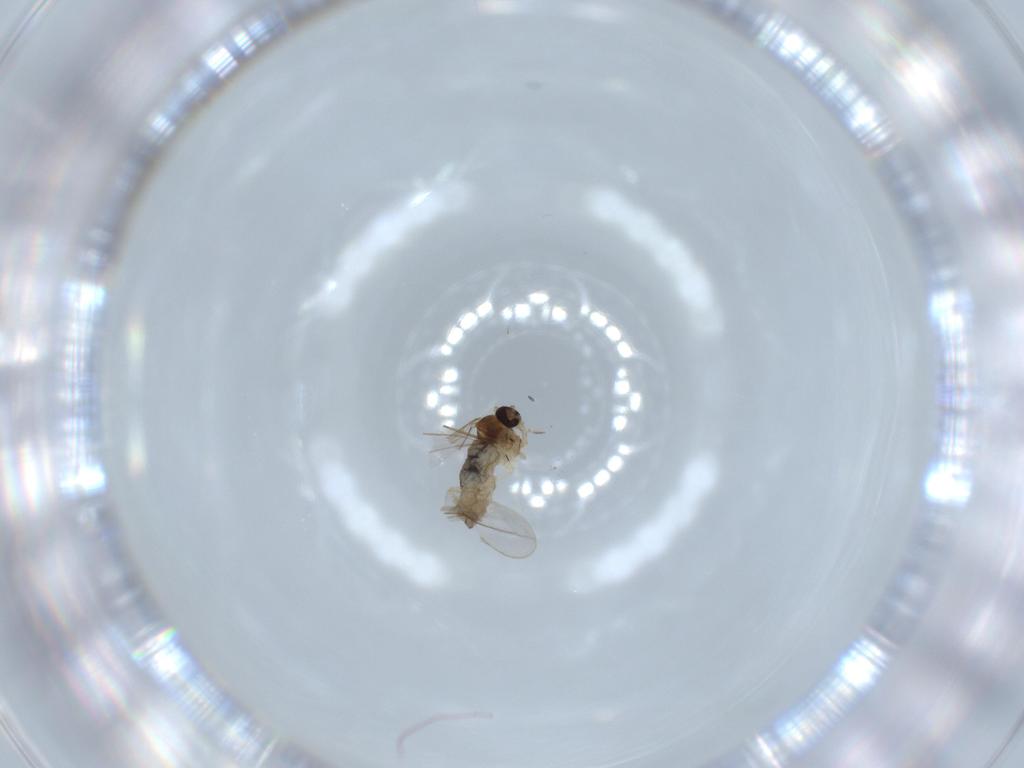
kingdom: Animalia
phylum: Arthropoda
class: Insecta
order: Diptera
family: Cecidomyiidae
